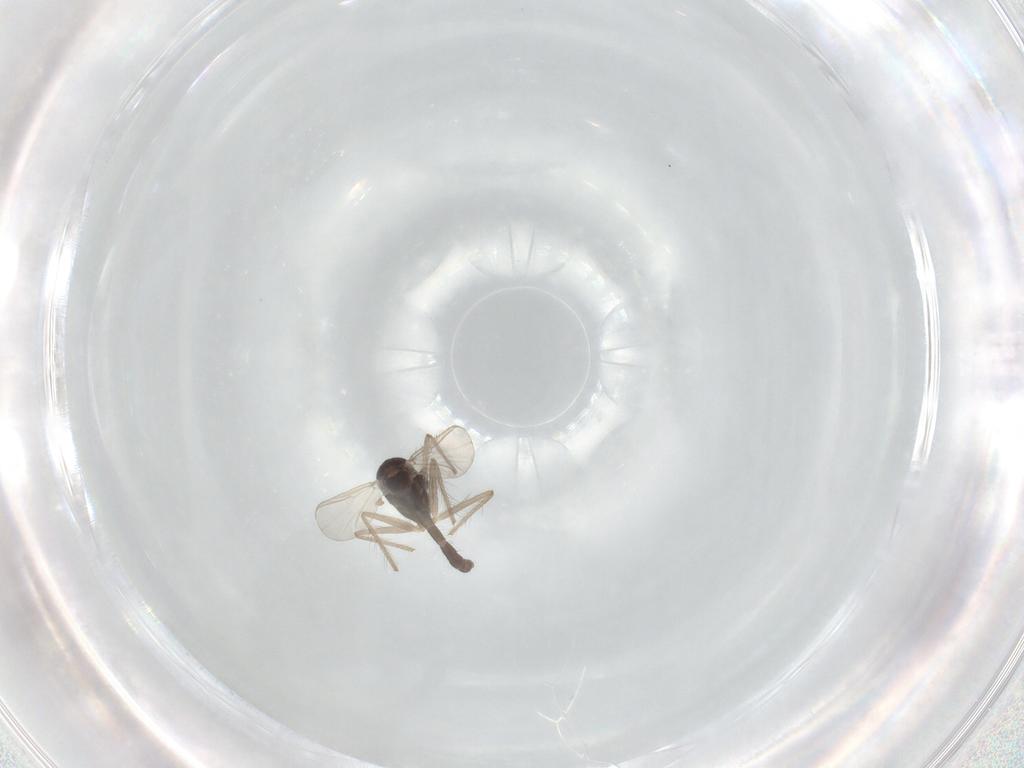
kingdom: Animalia
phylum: Arthropoda
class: Insecta
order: Diptera
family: Chironomidae
